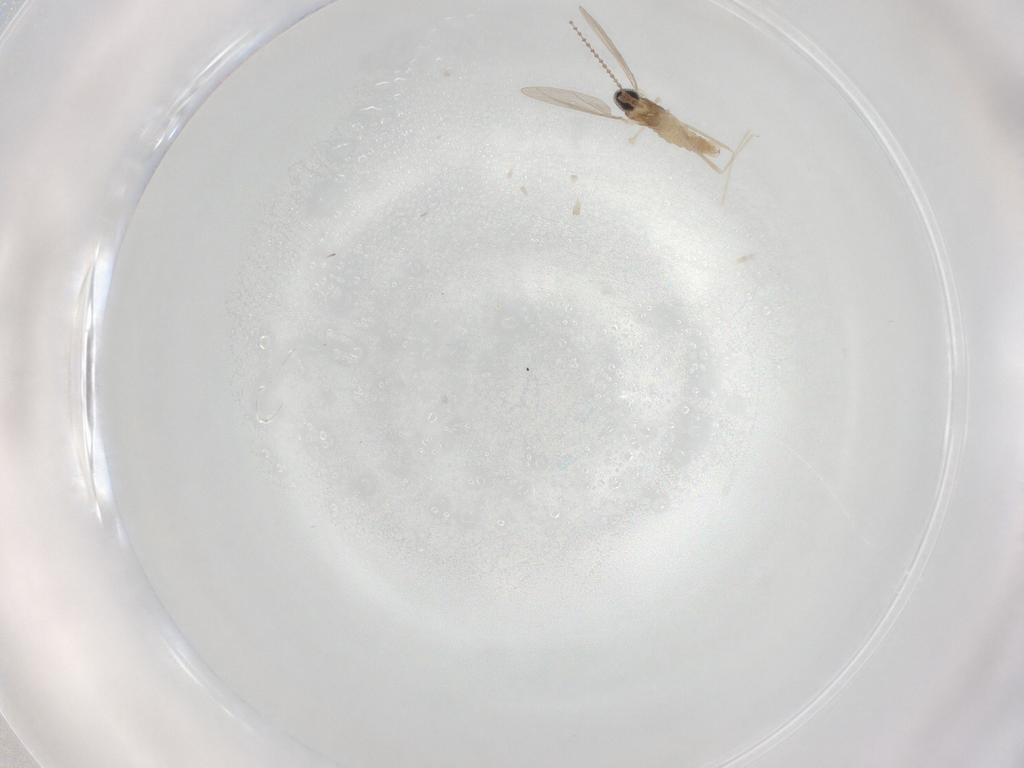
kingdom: Animalia
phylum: Arthropoda
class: Insecta
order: Diptera
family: Cecidomyiidae
